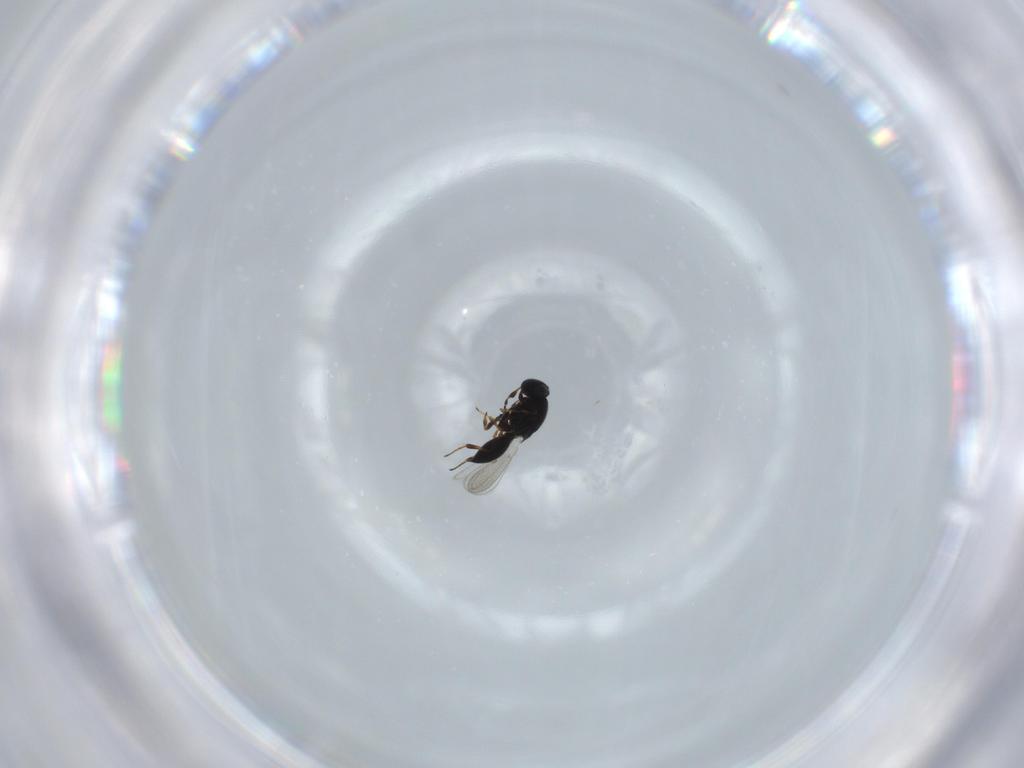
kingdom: Animalia
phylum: Arthropoda
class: Insecta
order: Hymenoptera
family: Platygastridae
